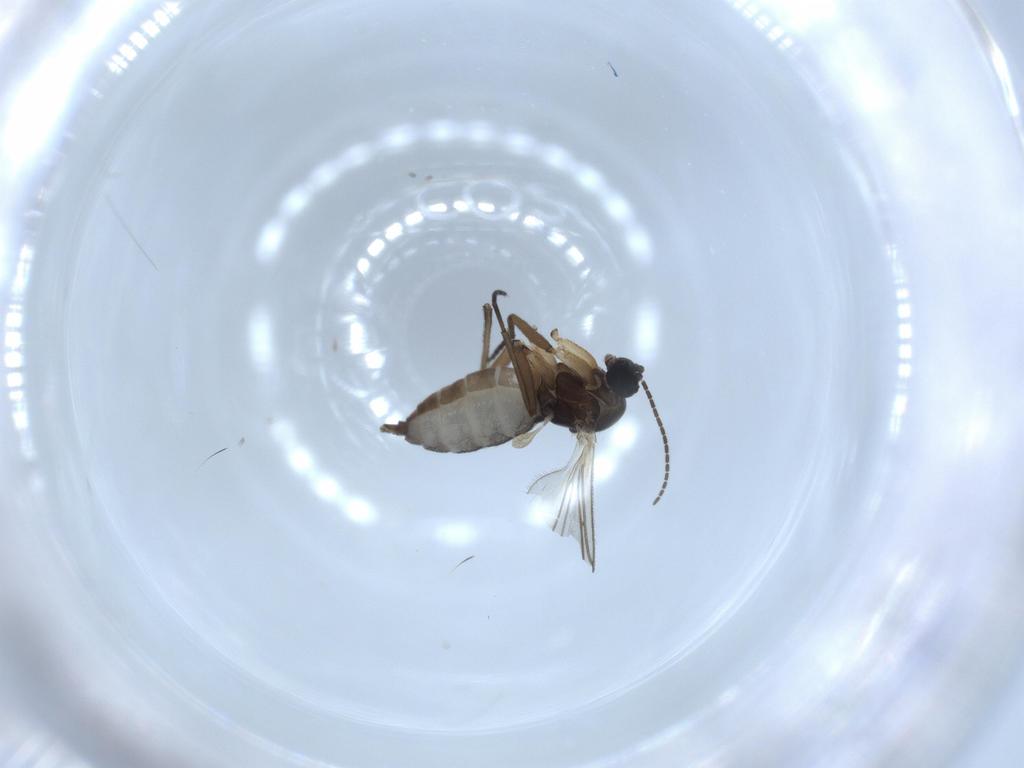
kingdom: Animalia
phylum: Arthropoda
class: Insecta
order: Diptera
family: Sciaridae
